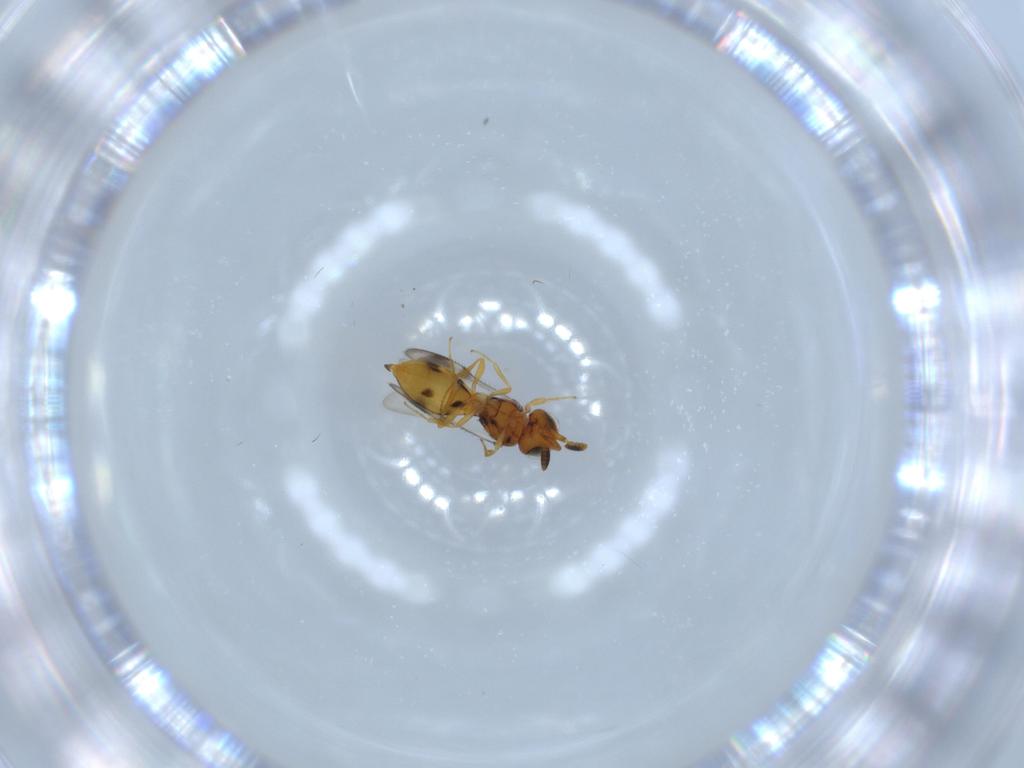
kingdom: Animalia
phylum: Arthropoda
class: Insecta
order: Hymenoptera
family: Scelionidae
